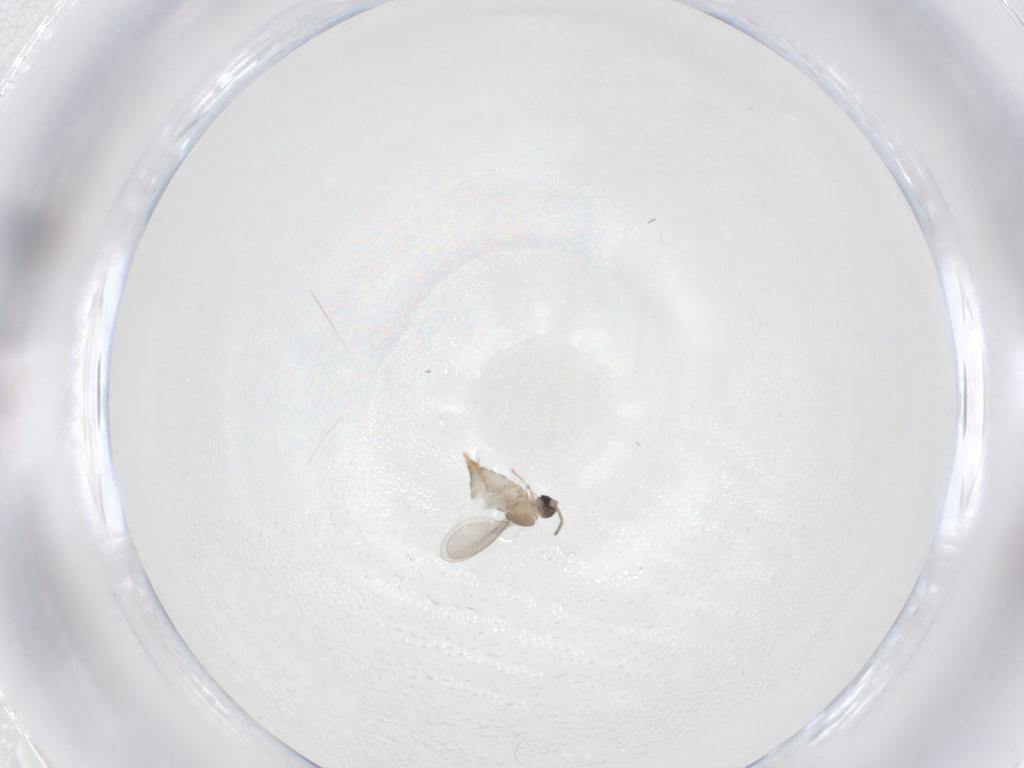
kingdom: Animalia
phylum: Arthropoda
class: Insecta
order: Diptera
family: Cecidomyiidae
